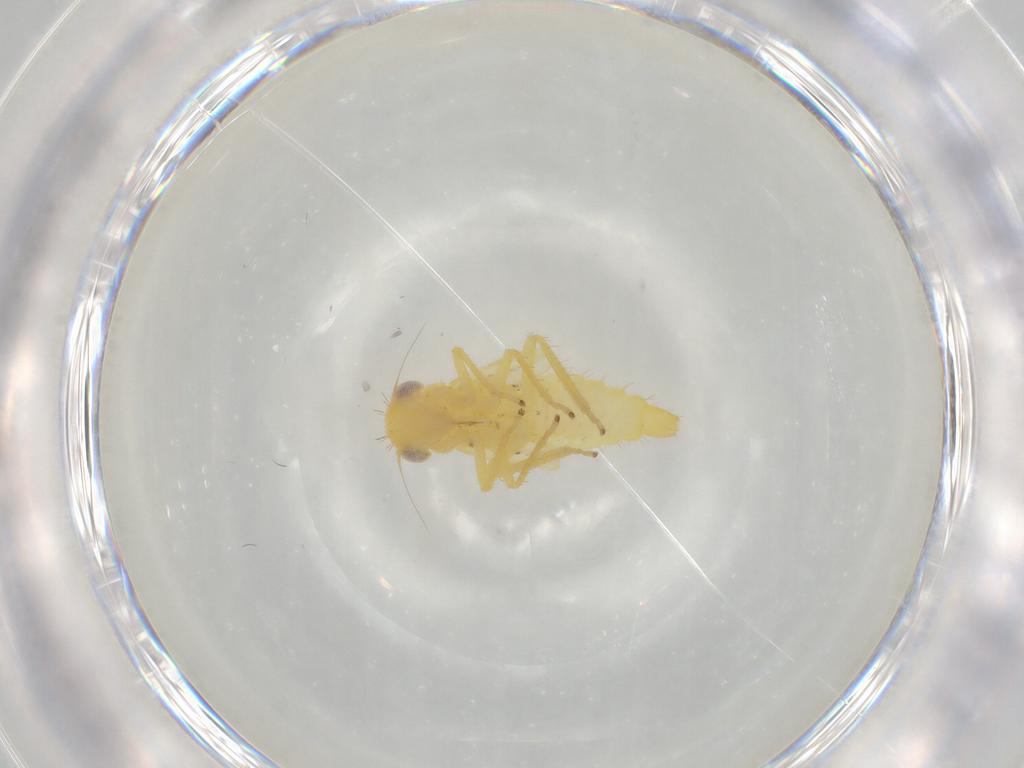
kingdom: Animalia
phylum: Arthropoda
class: Insecta
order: Hemiptera
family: Cicadellidae
